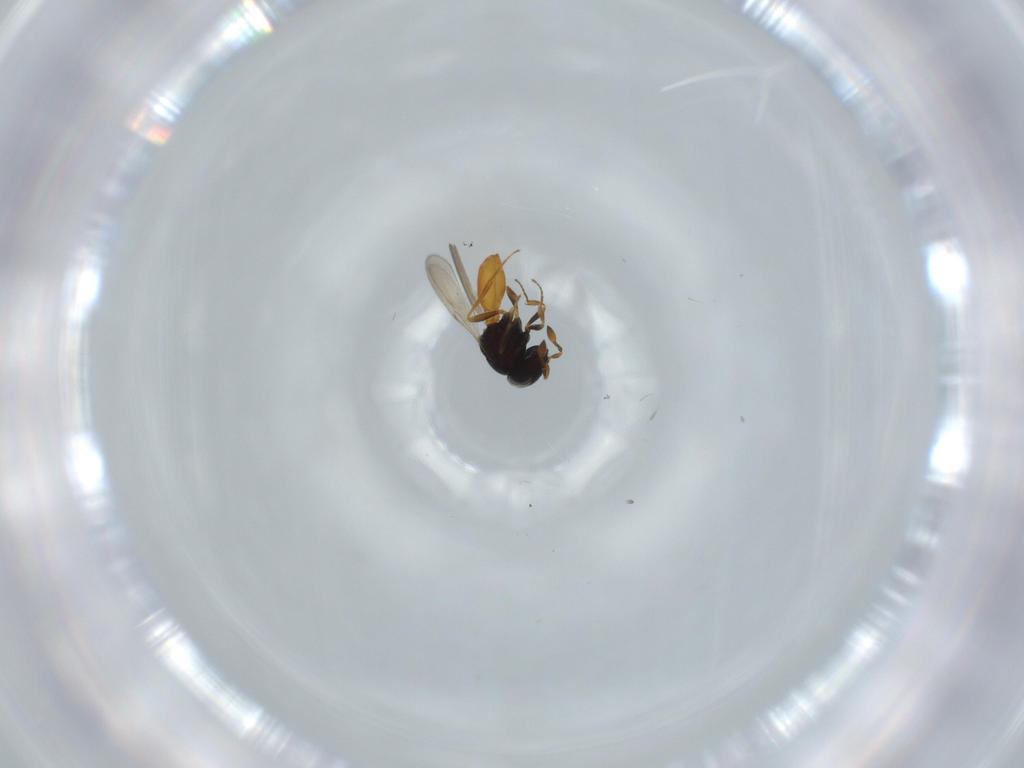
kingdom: Animalia
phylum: Arthropoda
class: Insecta
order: Hymenoptera
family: Scelionidae
